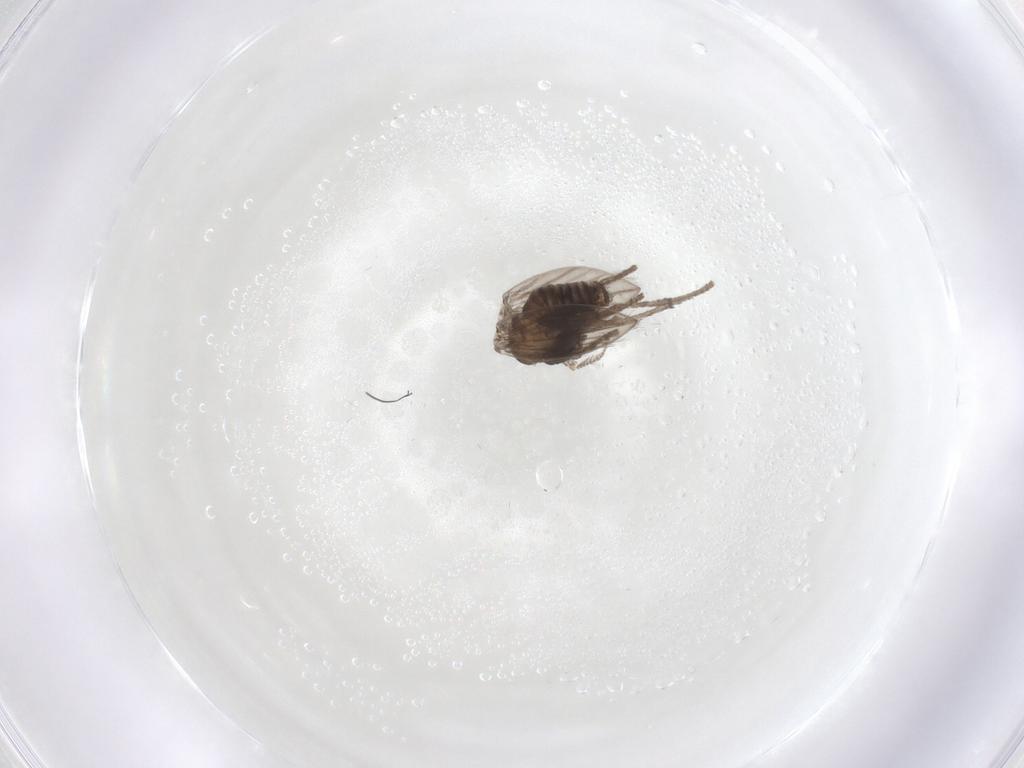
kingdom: Animalia
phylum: Arthropoda
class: Insecta
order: Diptera
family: Psychodidae
